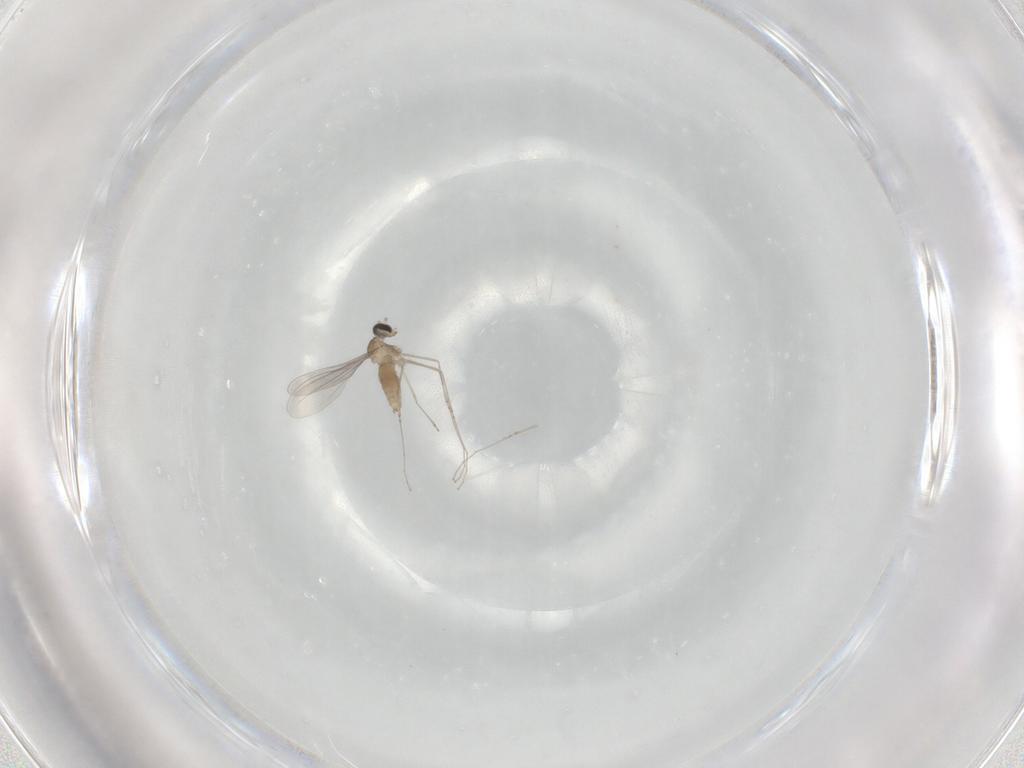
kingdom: Animalia
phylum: Arthropoda
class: Insecta
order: Diptera
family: Cecidomyiidae
